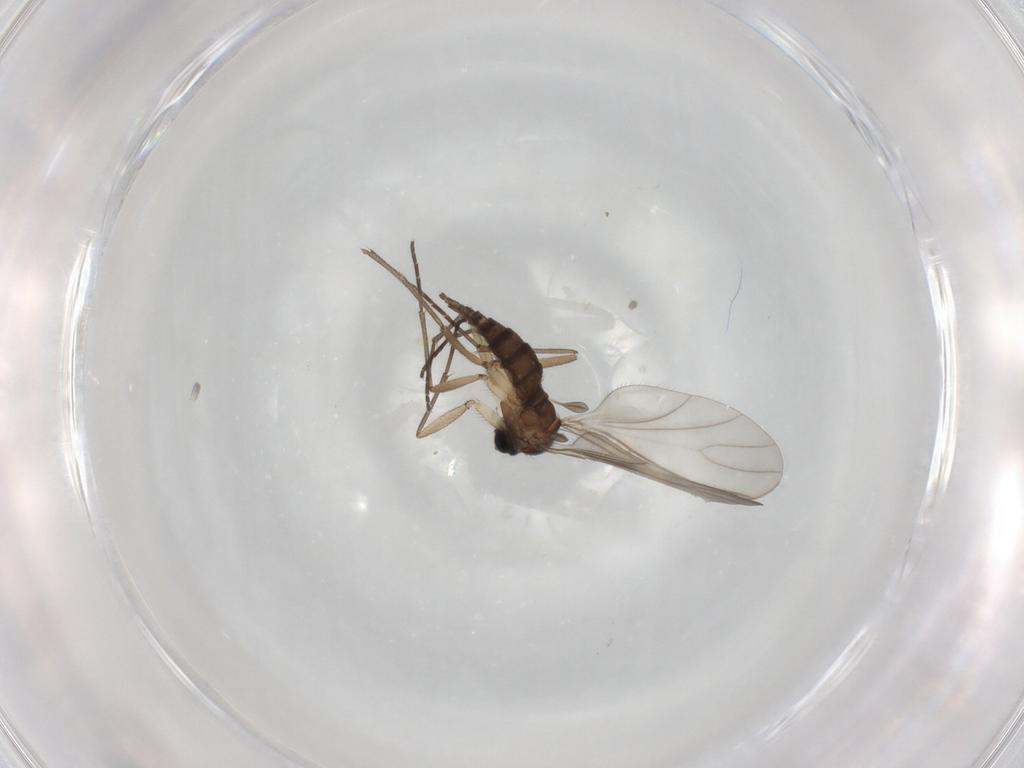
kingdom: Animalia
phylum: Arthropoda
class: Insecta
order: Diptera
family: Sciaridae
